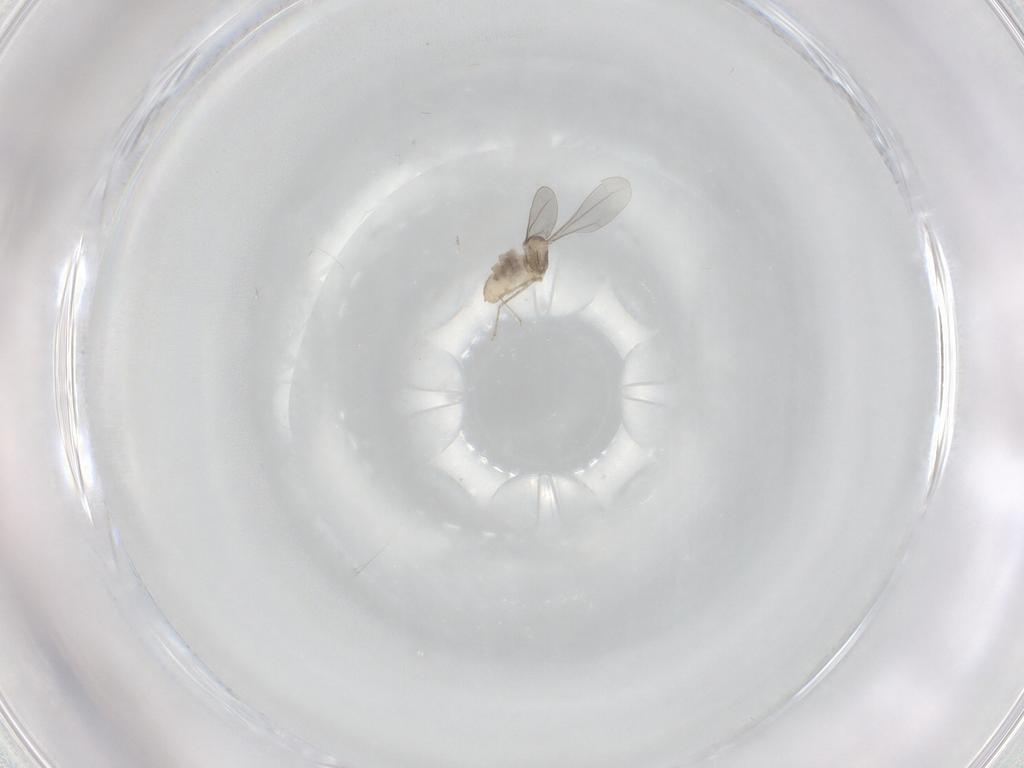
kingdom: Animalia
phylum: Arthropoda
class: Insecta
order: Diptera
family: Cecidomyiidae
